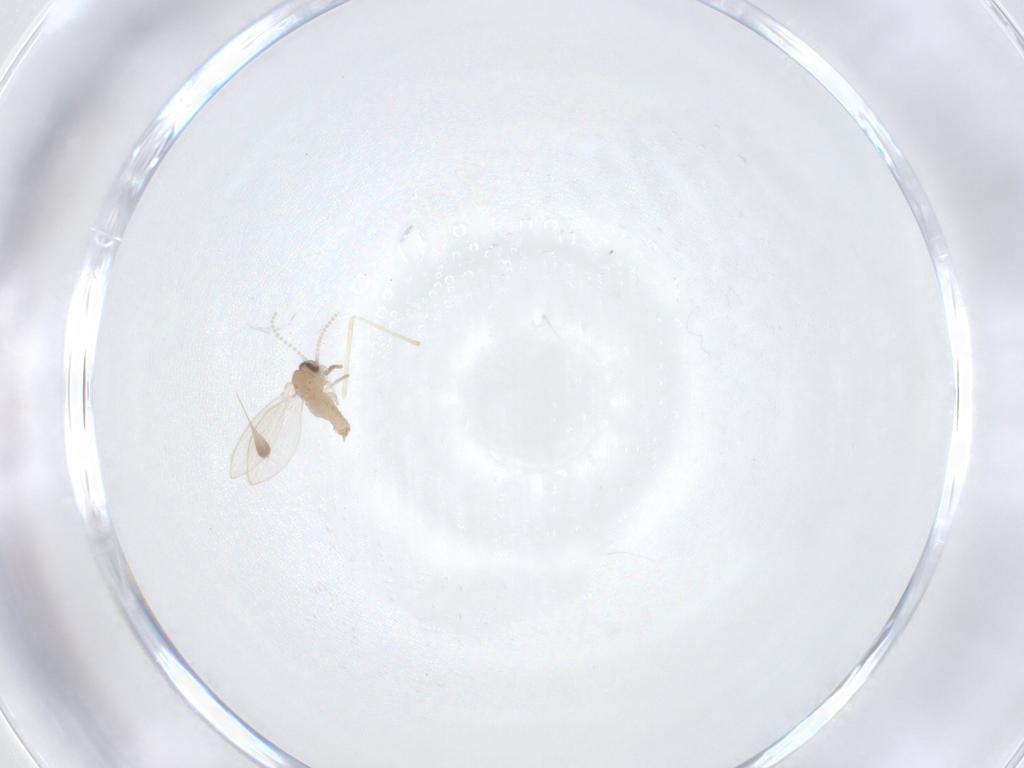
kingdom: Animalia
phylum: Arthropoda
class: Insecta
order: Diptera
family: Psychodidae
